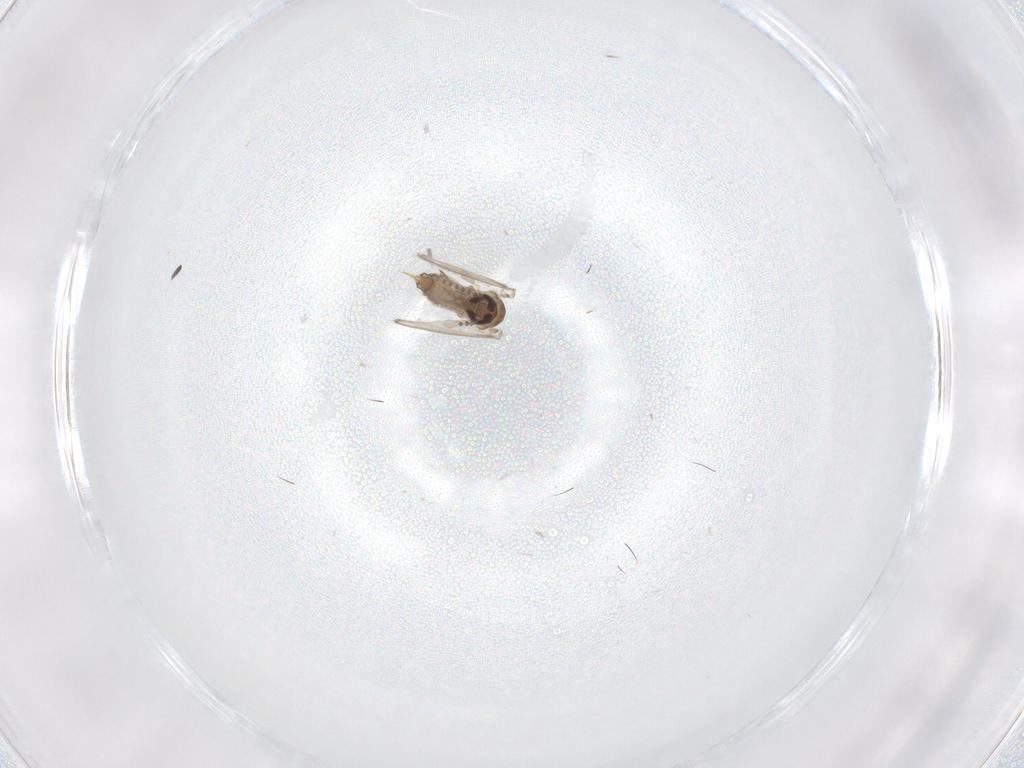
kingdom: Animalia
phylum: Arthropoda
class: Insecta
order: Diptera
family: Psychodidae
